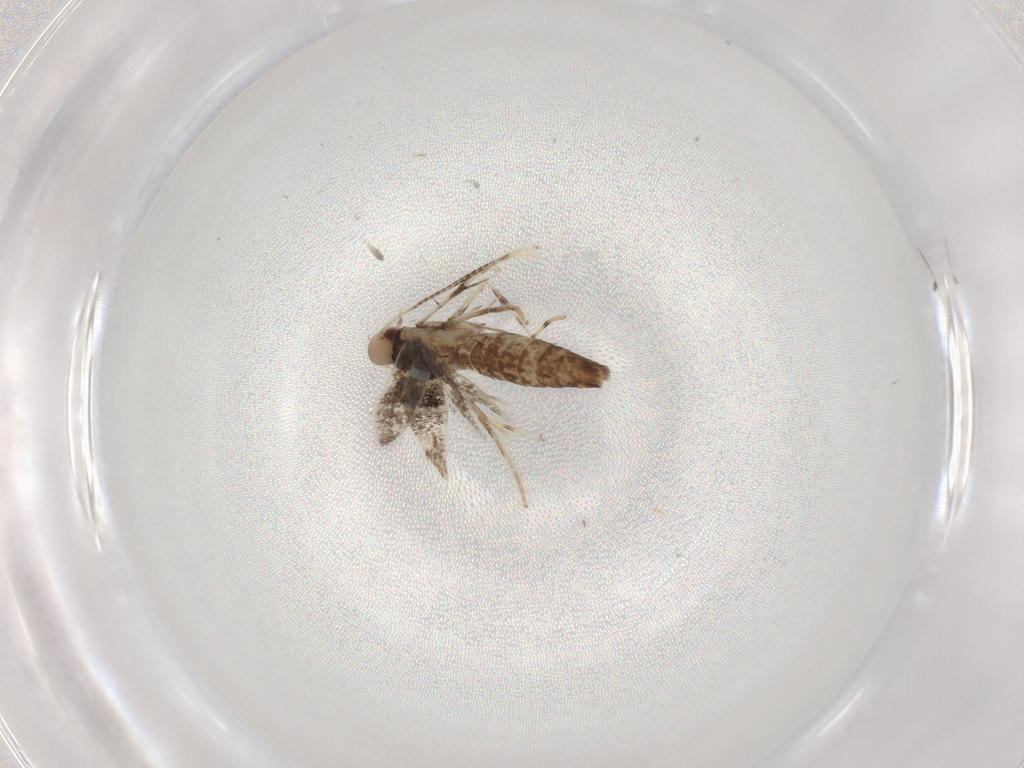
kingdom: Animalia
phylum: Arthropoda
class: Insecta
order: Lepidoptera
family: Gracillariidae
